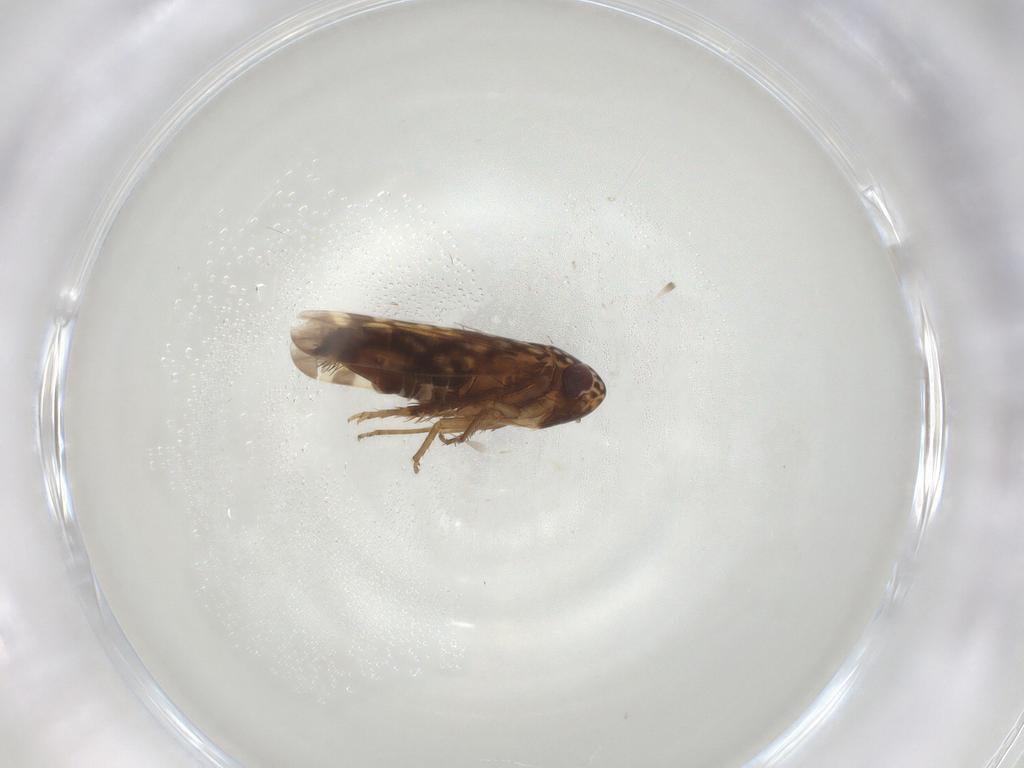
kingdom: Animalia
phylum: Arthropoda
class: Insecta
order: Hemiptera
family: Cicadellidae
